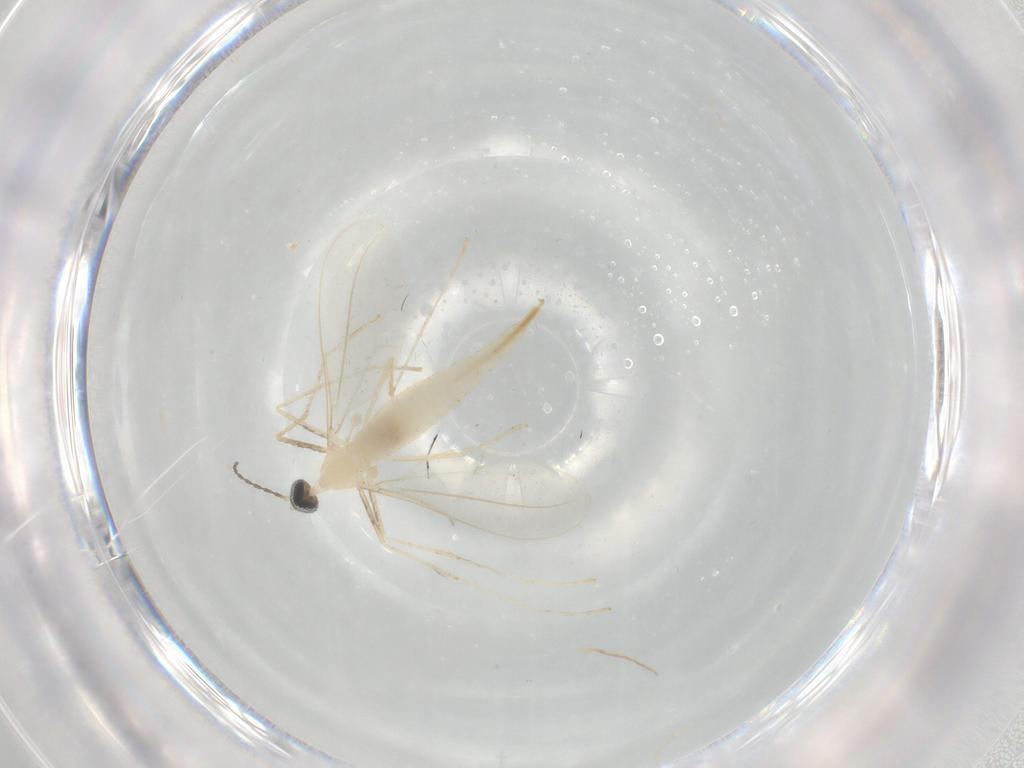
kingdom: Animalia
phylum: Arthropoda
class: Insecta
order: Diptera
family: Cecidomyiidae
